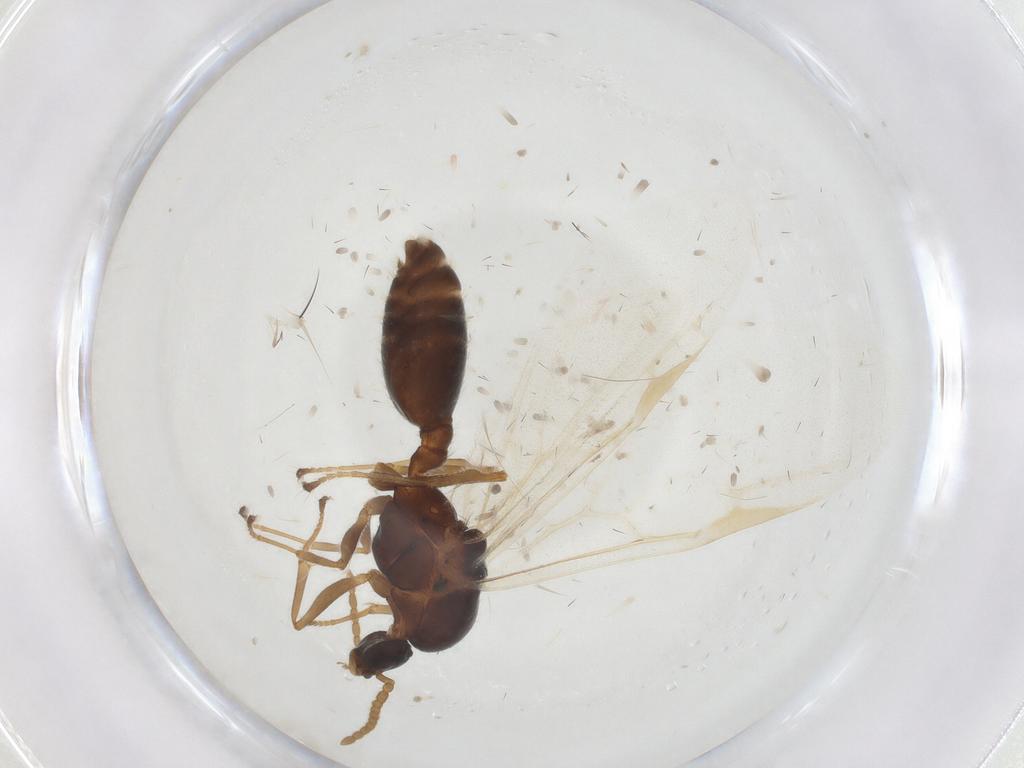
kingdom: Animalia
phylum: Arthropoda
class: Insecta
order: Hymenoptera
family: Formicidae
